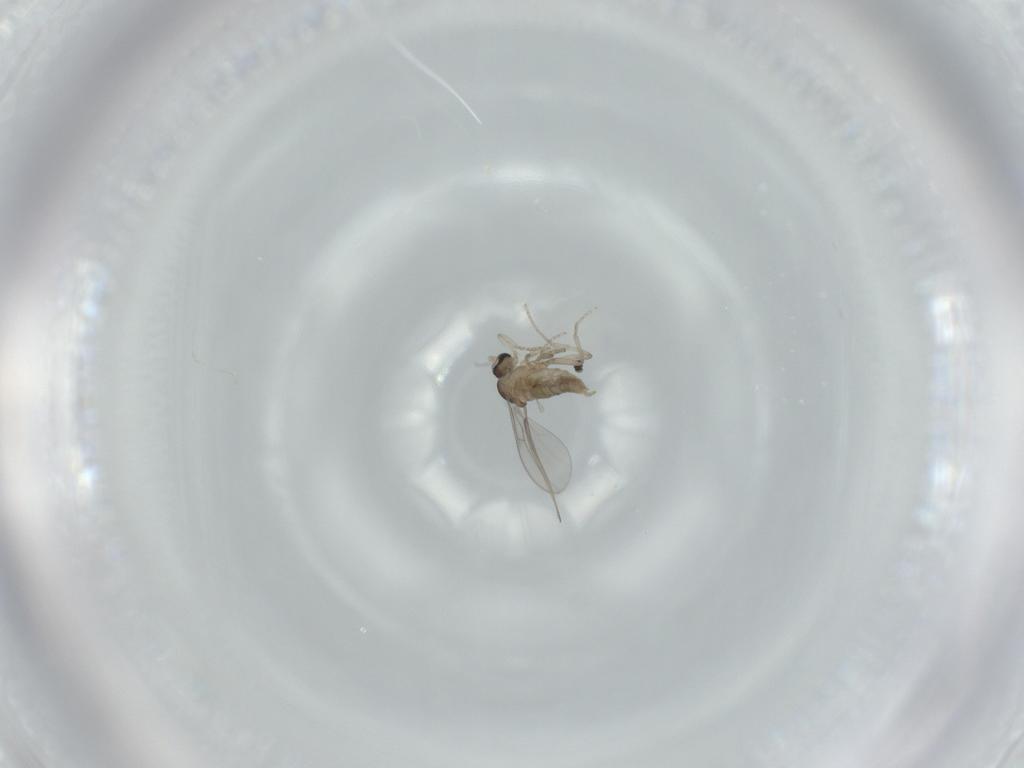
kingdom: Animalia
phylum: Arthropoda
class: Insecta
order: Diptera
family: Cecidomyiidae
